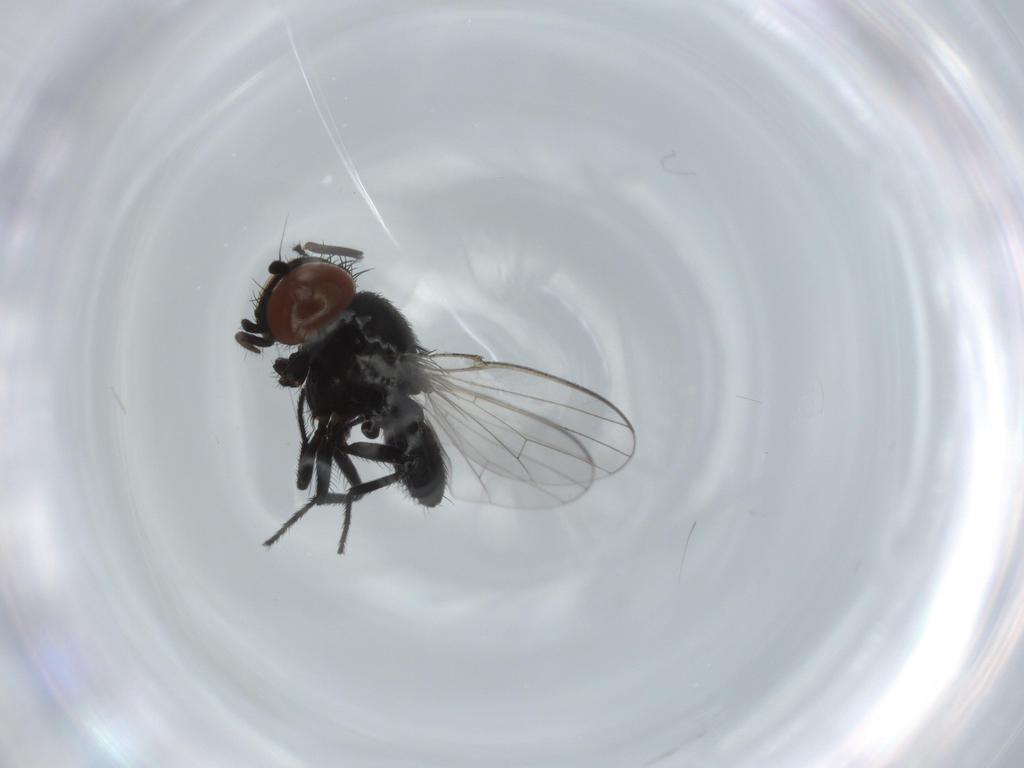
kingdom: Animalia
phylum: Arthropoda
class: Insecta
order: Diptera
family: Milichiidae
